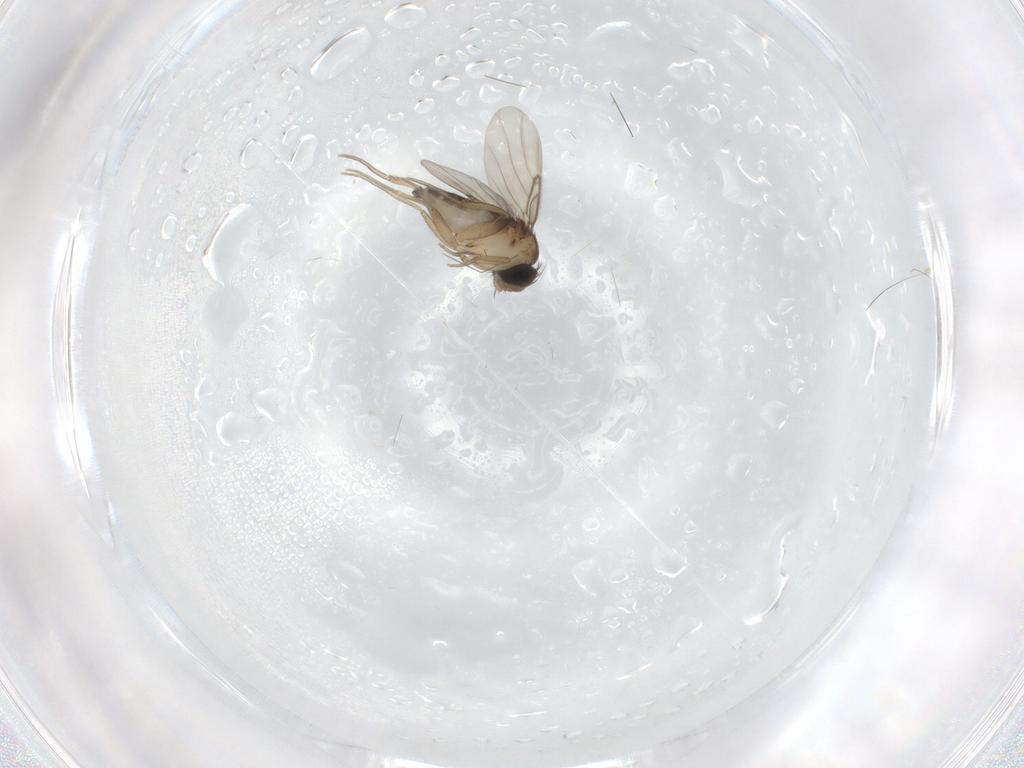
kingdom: Animalia
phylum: Arthropoda
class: Insecta
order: Diptera
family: Phoridae
